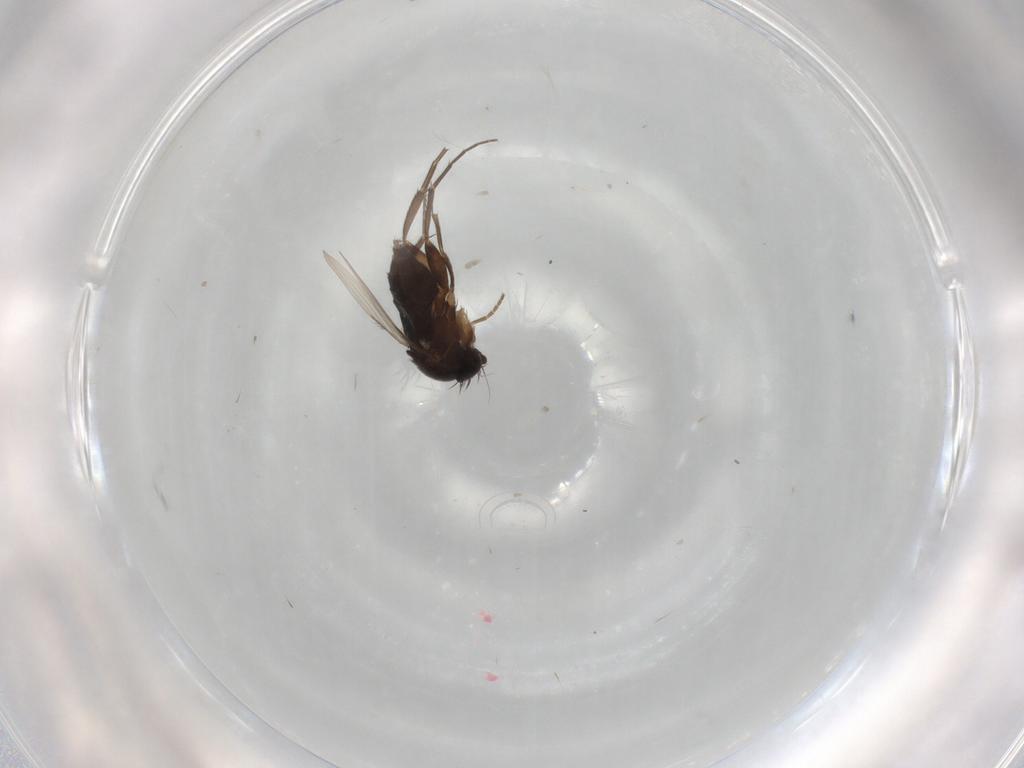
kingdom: Animalia
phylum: Arthropoda
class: Insecta
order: Diptera
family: Phoridae
